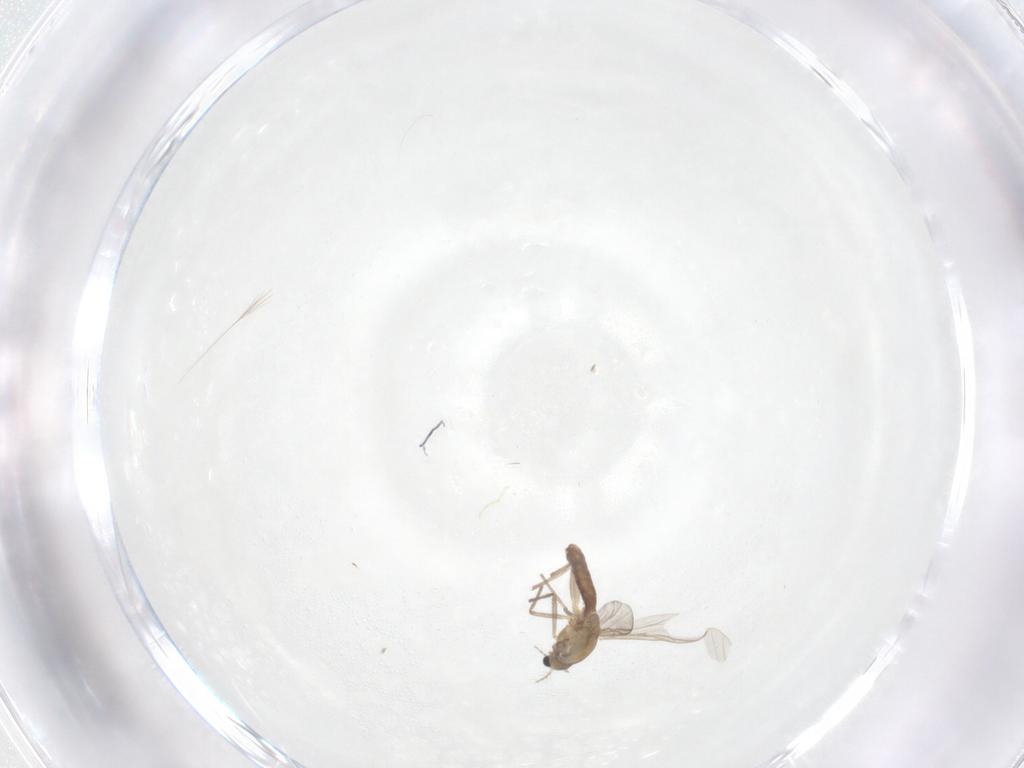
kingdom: Animalia
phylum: Arthropoda
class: Insecta
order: Diptera
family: Chironomidae
